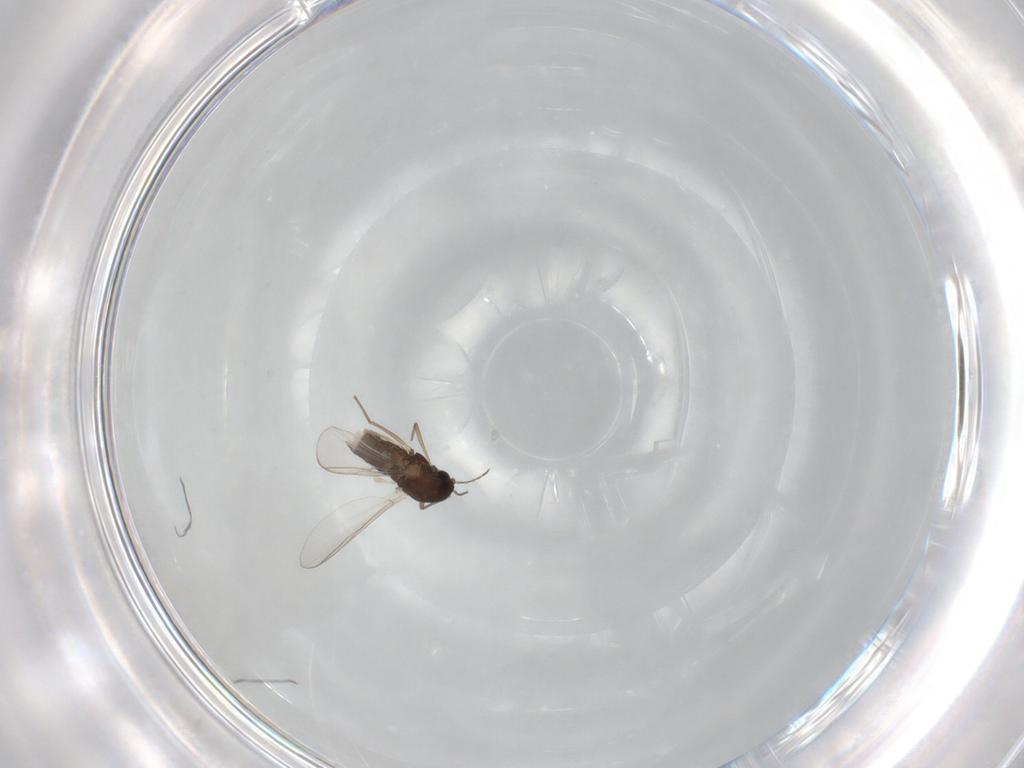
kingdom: Animalia
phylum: Arthropoda
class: Insecta
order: Diptera
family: Chironomidae
